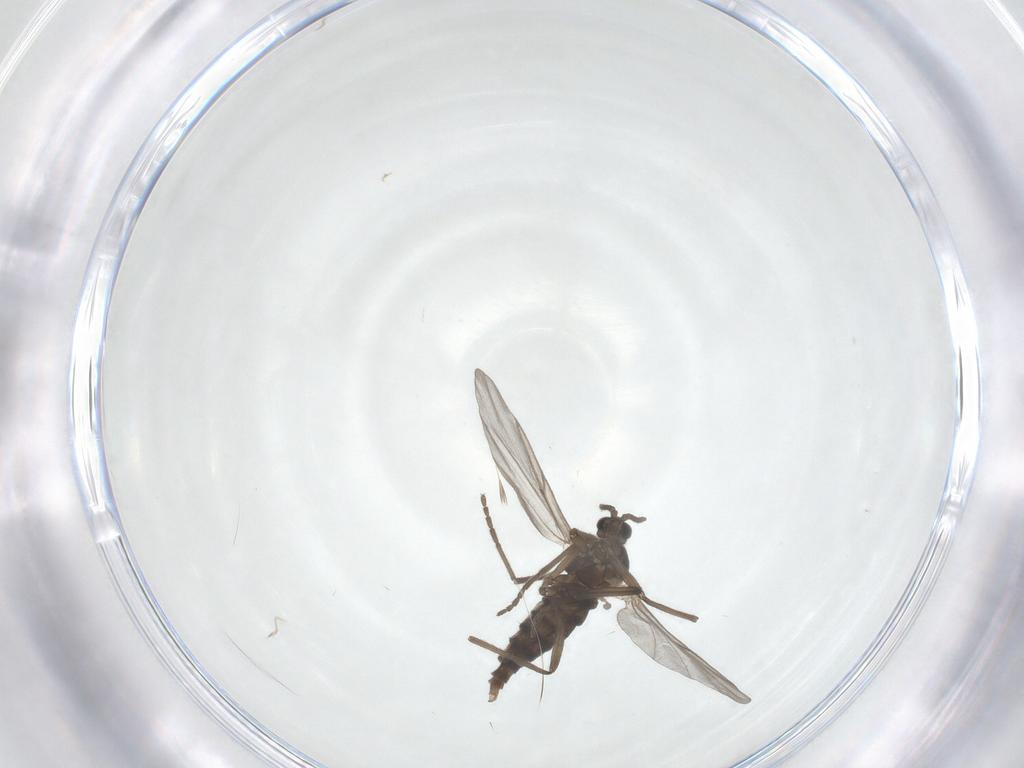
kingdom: Animalia
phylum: Arthropoda
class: Insecta
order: Diptera
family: Cecidomyiidae
